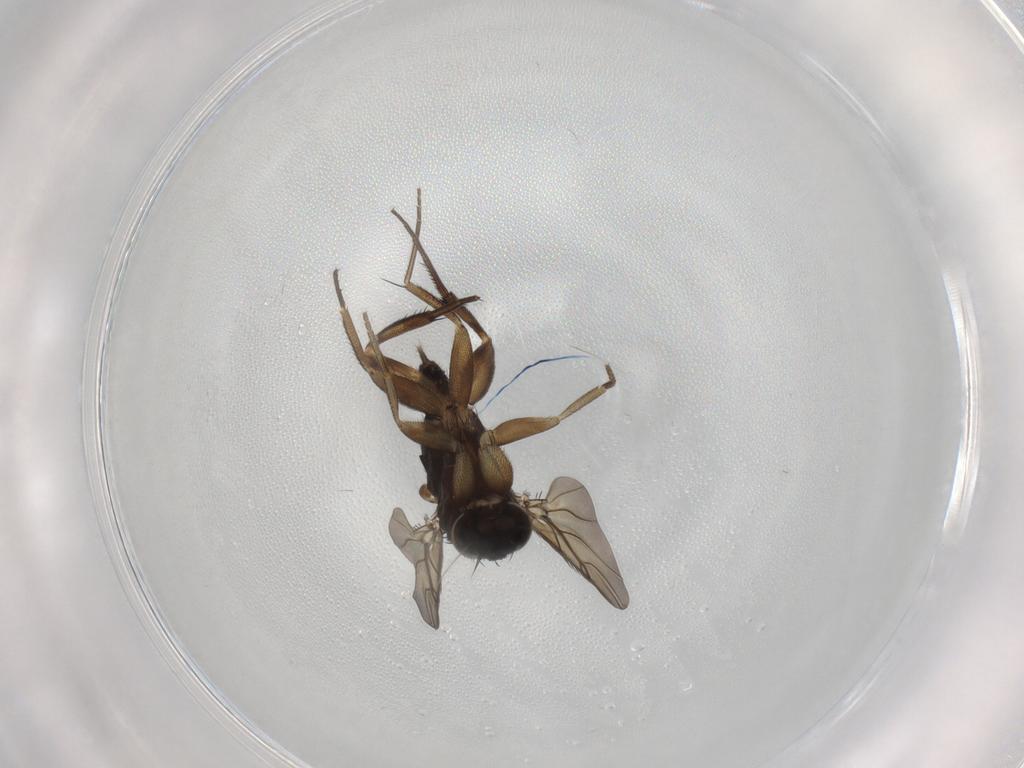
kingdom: Animalia
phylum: Arthropoda
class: Insecta
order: Diptera
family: Phoridae
